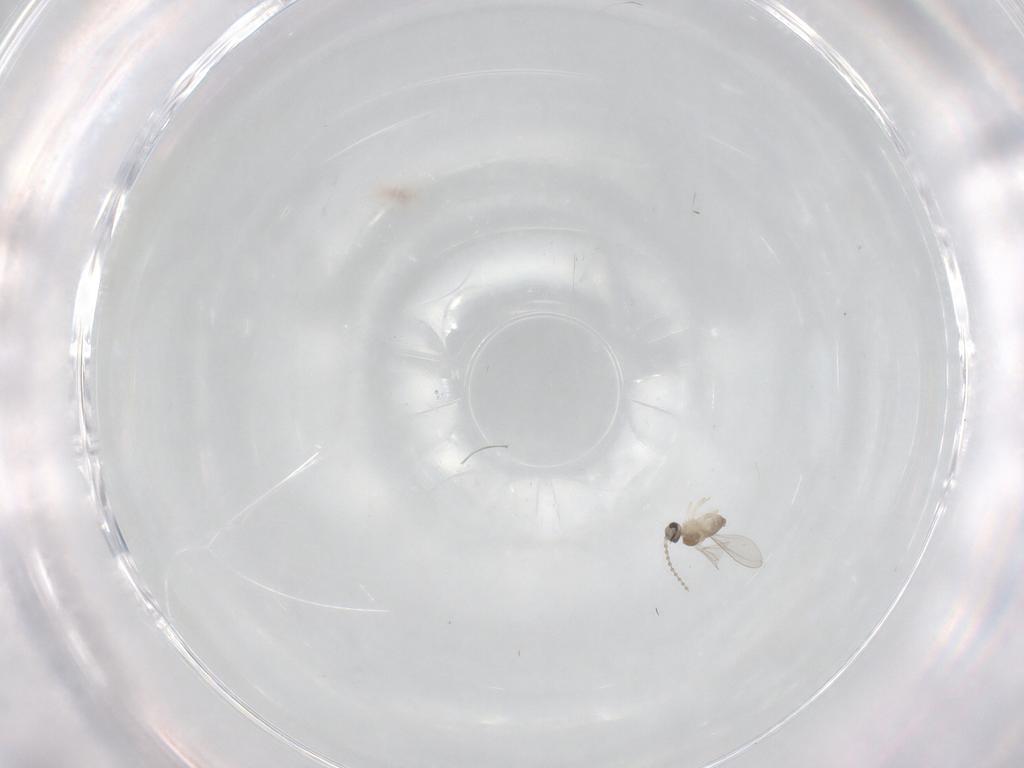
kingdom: Animalia
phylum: Arthropoda
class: Insecta
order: Diptera
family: Cecidomyiidae
